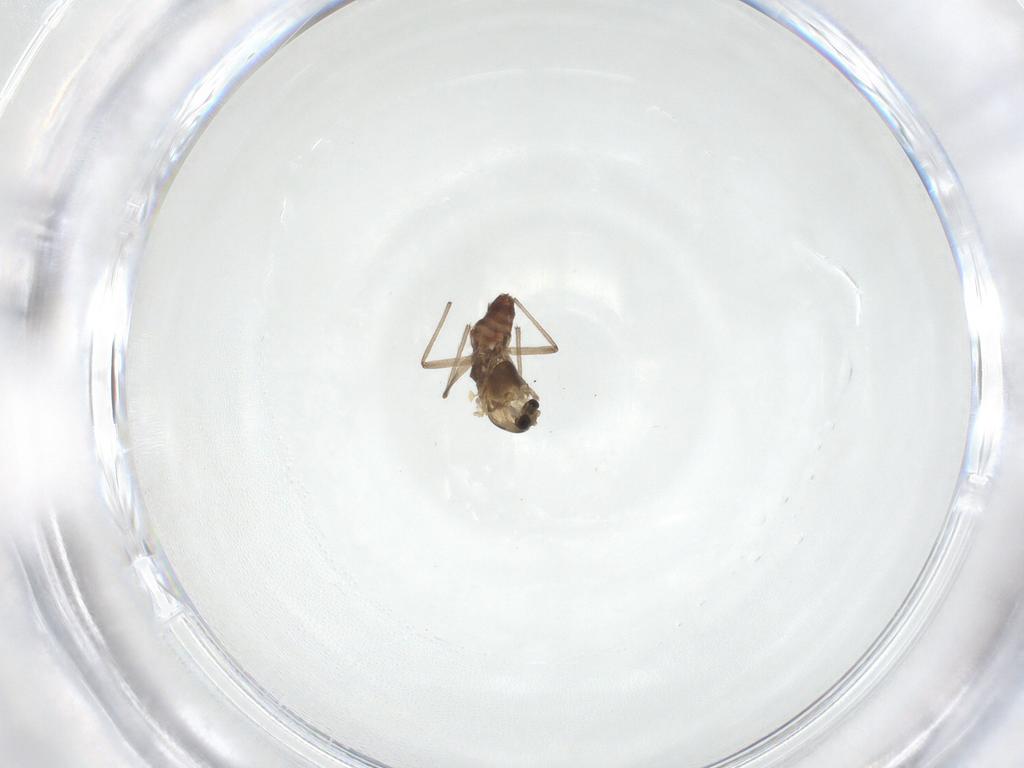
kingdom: Animalia
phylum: Arthropoda
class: Insecta
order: Diptera
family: Chironomidae
